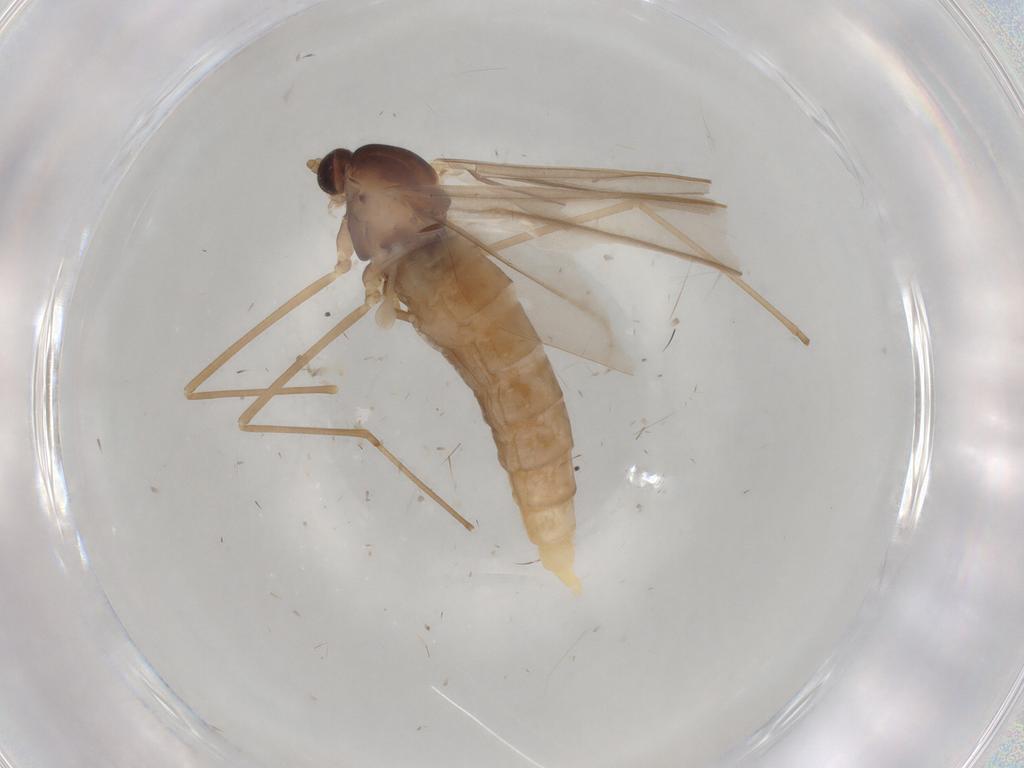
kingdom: Animalia
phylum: Arthropoda
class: Insecta
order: Diptera
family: Cecidomyiidae
